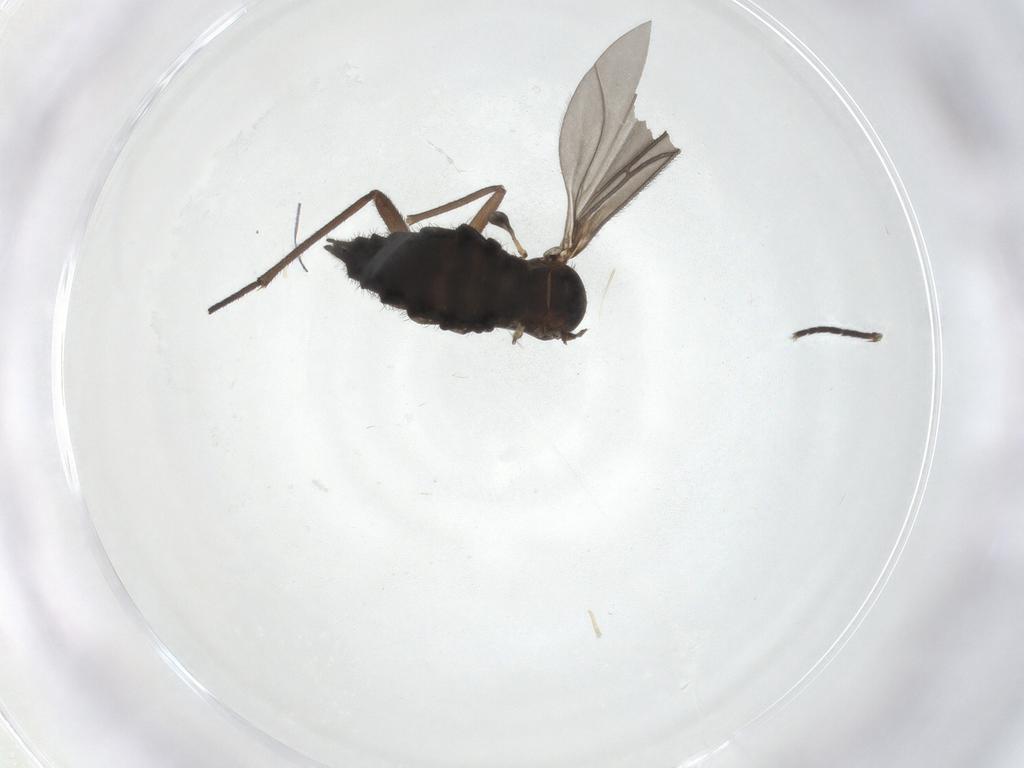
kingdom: Animalia
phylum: Arthropoda
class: Insecta
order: Diptera
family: Sciaridae
